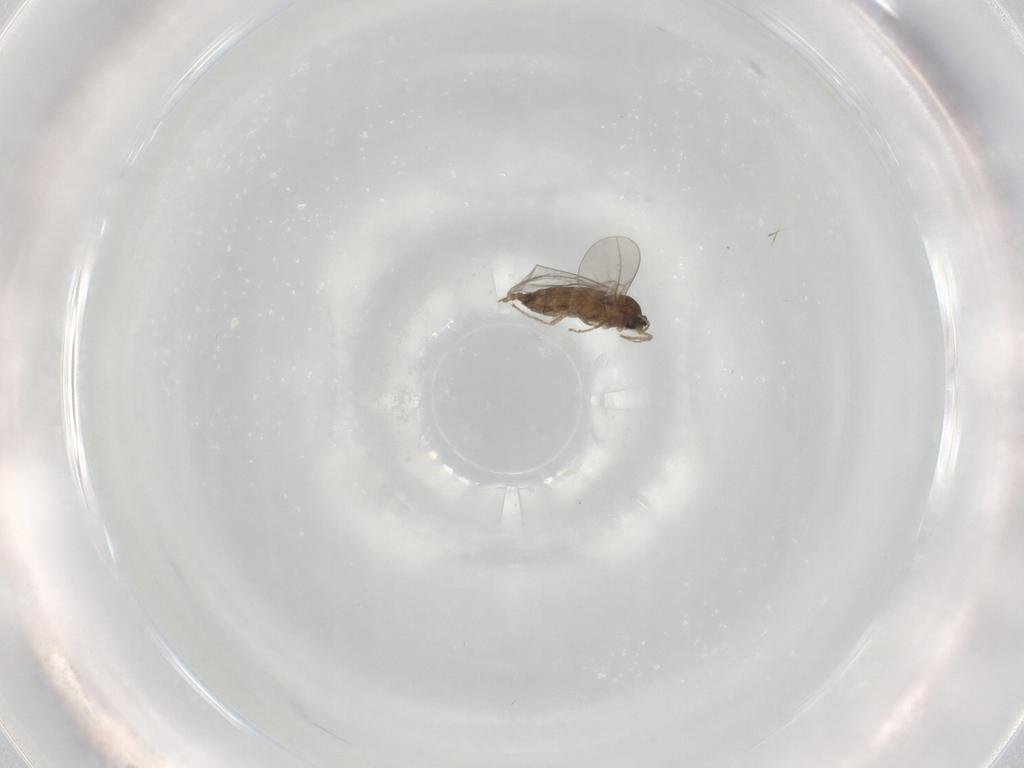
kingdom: Animalia
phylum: Arthropoda
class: Insecta
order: Diptera
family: Cecidomyiidae
